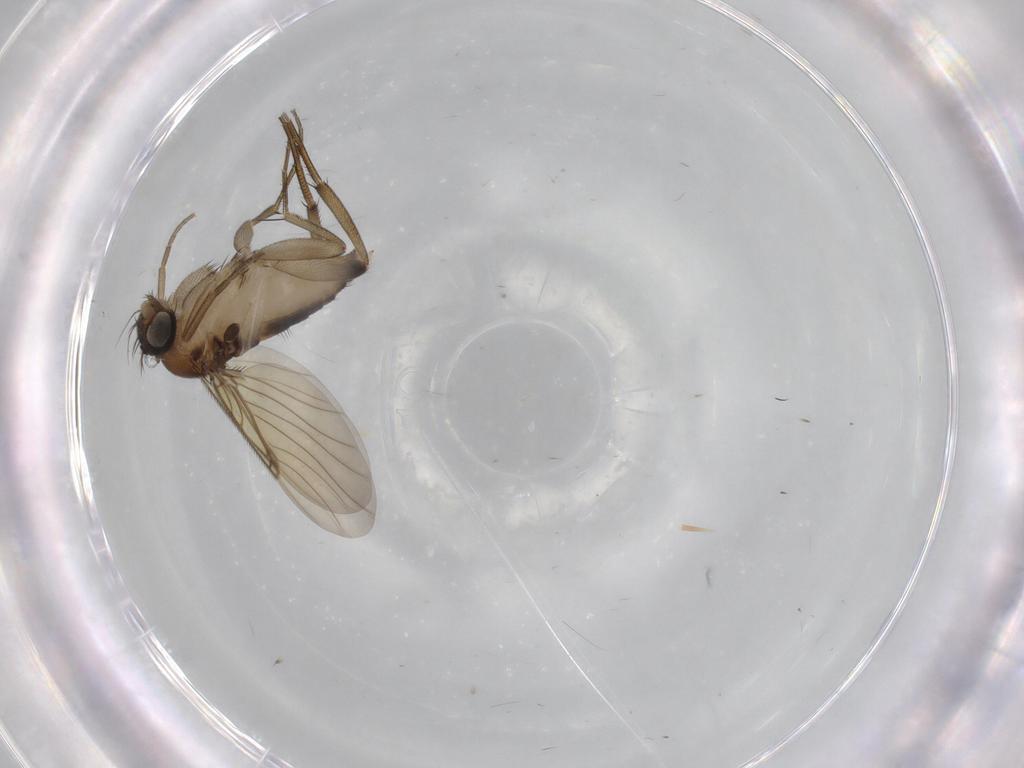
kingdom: Animalia
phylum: Arthropoda
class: Insecta
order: Diptera
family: Phoridae
